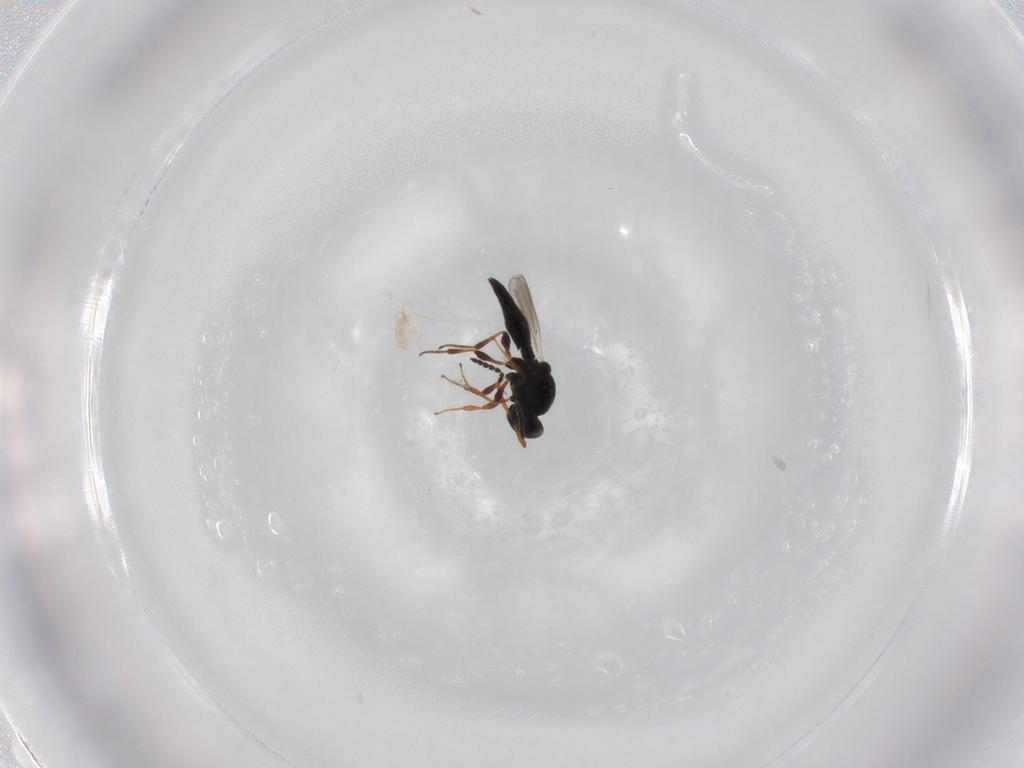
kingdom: Animalia
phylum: Arthropoda
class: Insecta
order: Hymenoptera
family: Platygastridae
